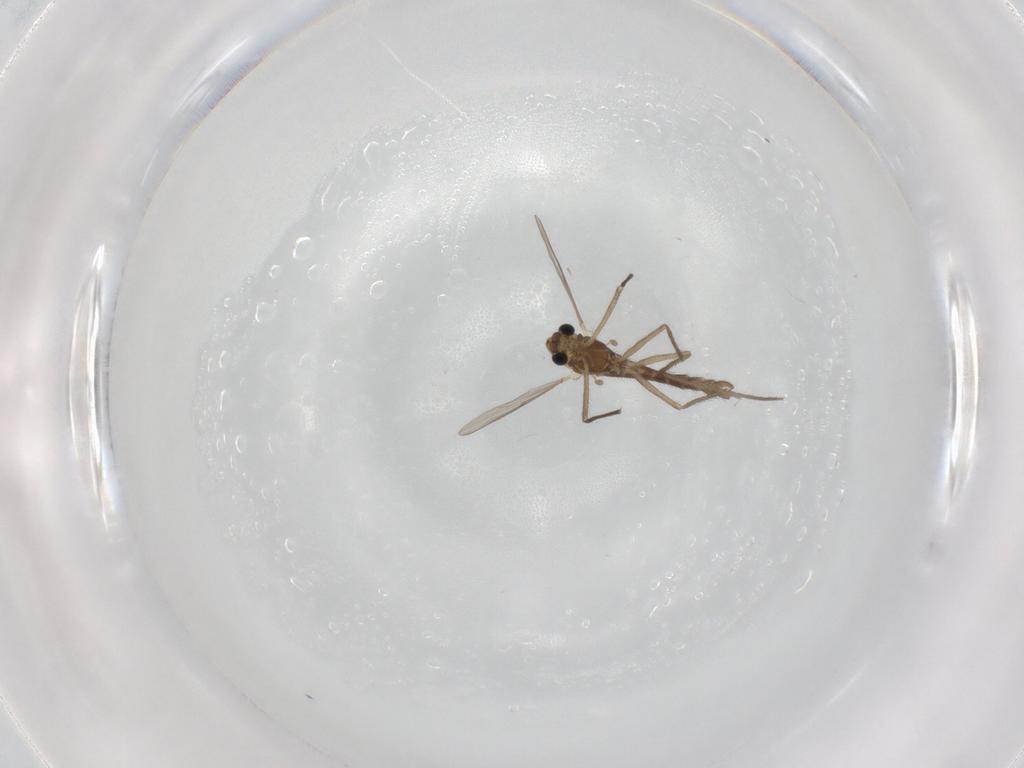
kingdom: Animalia
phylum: Arthropoda
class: Insecta
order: Diptera
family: Chironomidae
